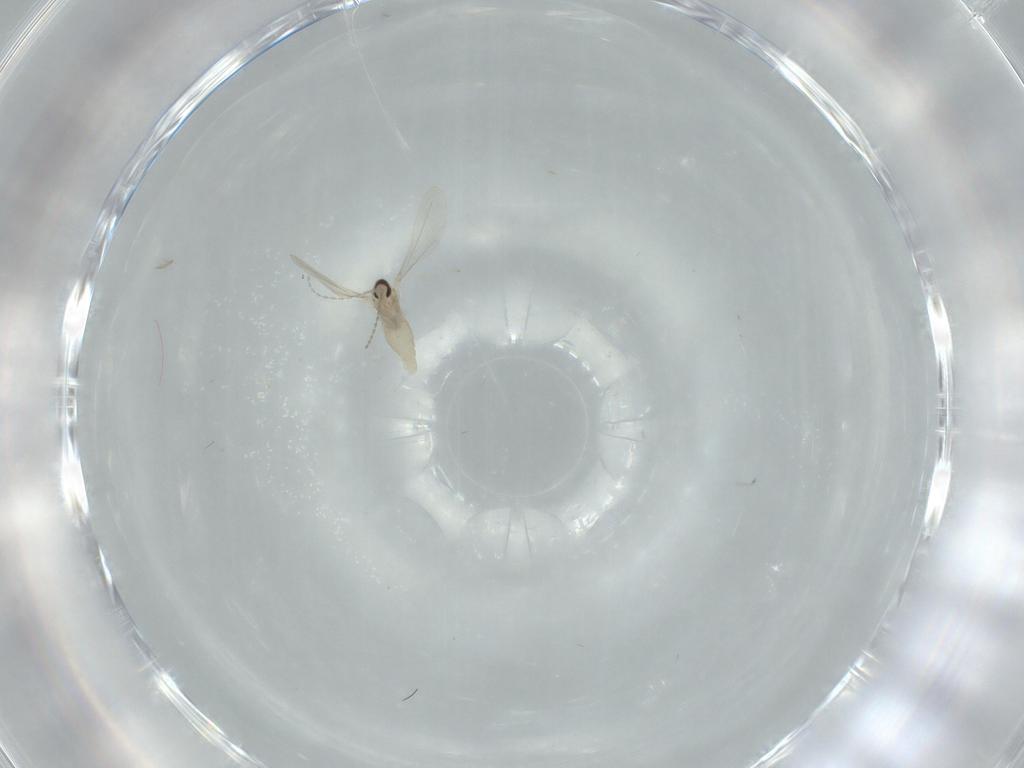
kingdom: Animalia
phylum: Arthropoda
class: Insecta
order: Diptera
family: Cecidomyiidae
